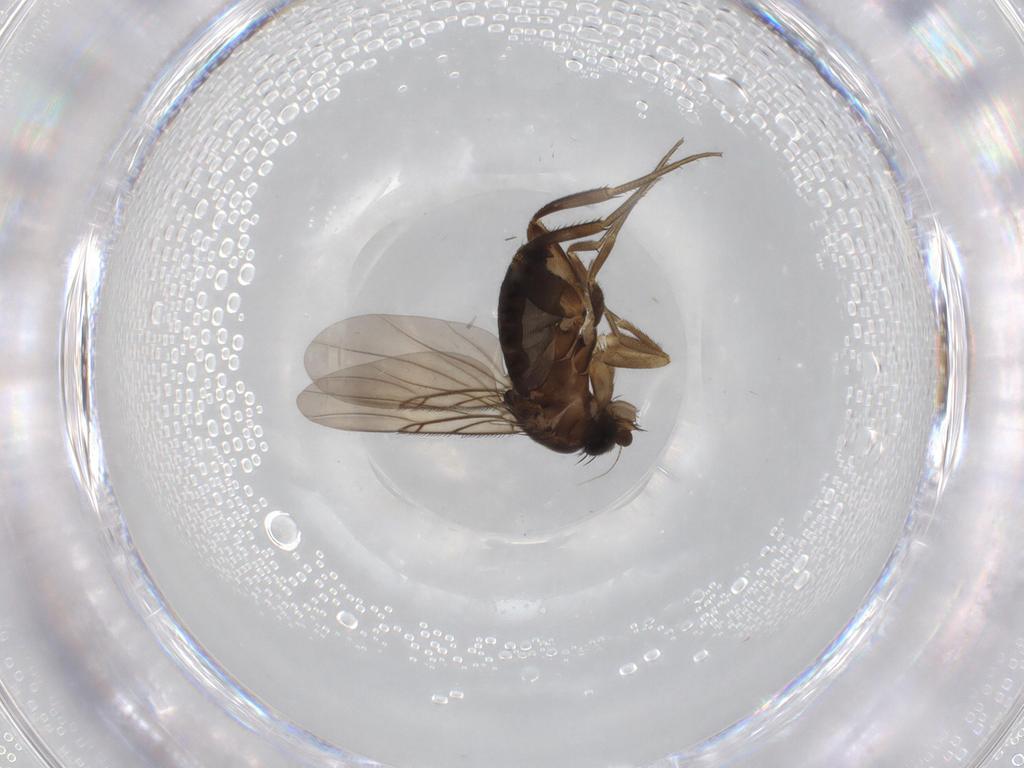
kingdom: Animalia
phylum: Arthropoda
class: Insecta
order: Diptera
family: Phoridae
